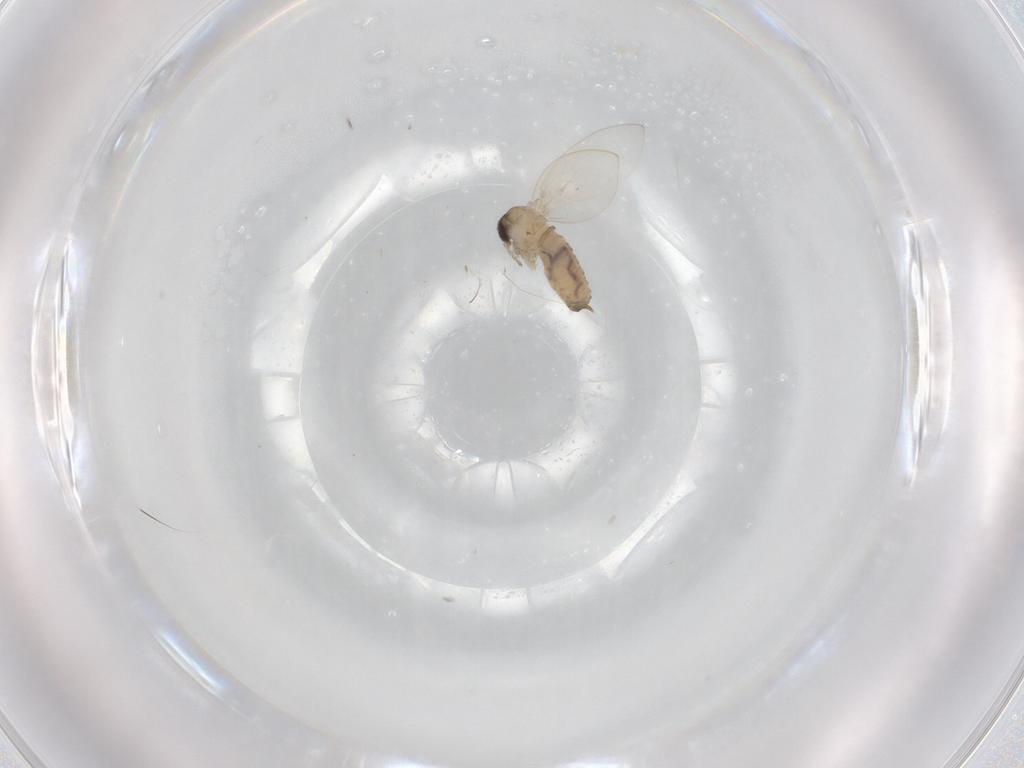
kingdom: Animalia
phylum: Arthropoda
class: Insecta
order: Diptera
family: Psychodidae
